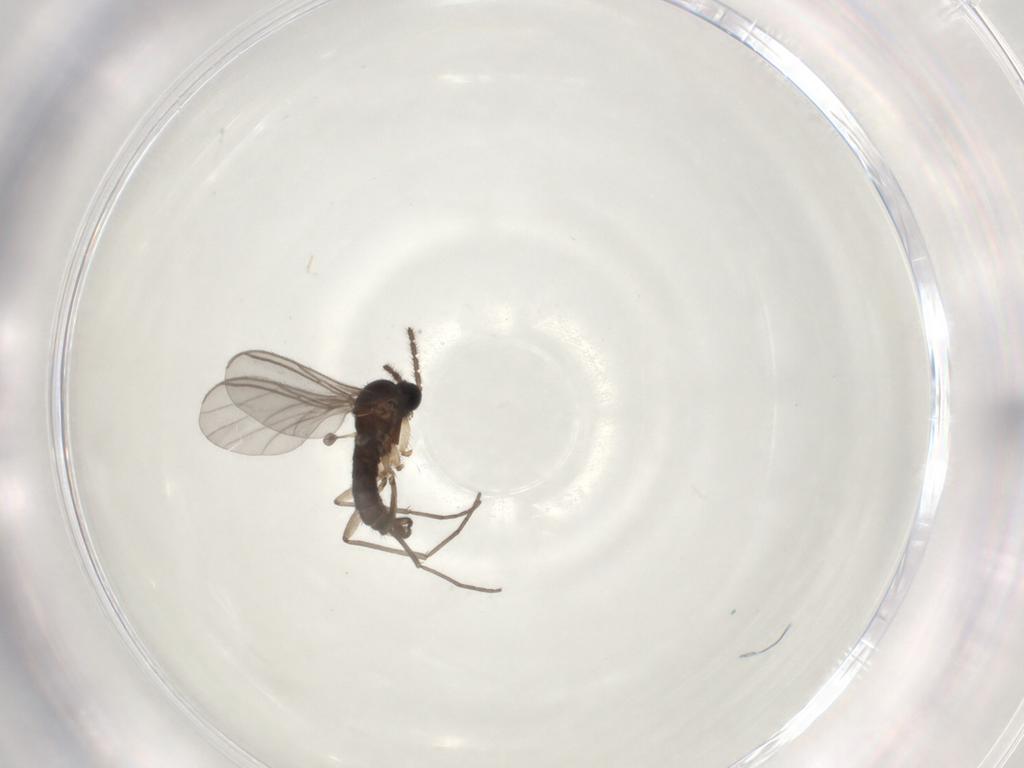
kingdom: Animalia
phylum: Arthropoda
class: Insecta
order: Diptera
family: Sciaridae
